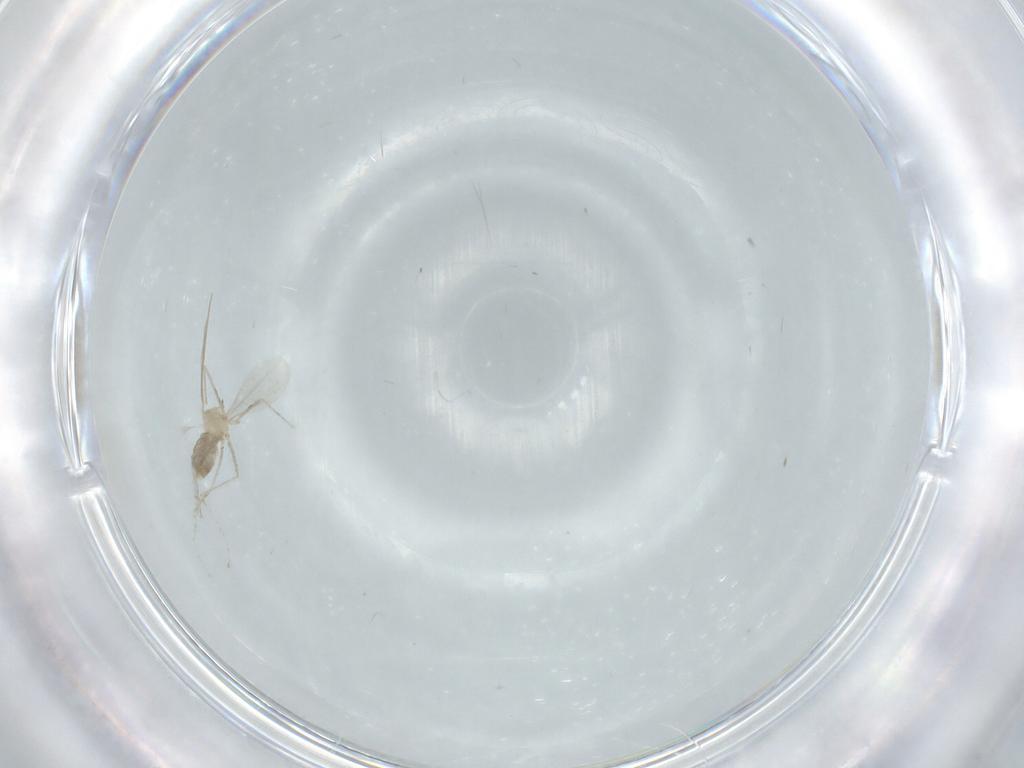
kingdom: Animalia
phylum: Arthropoda
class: Insecta
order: Diptera
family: Cecidomyiidae
